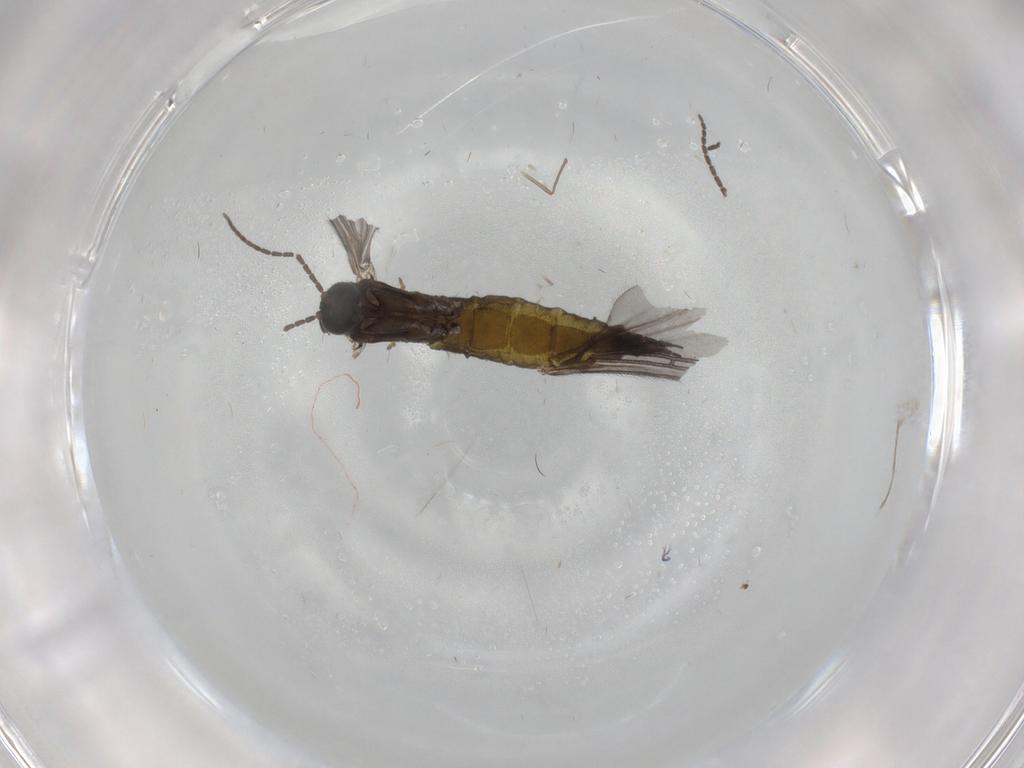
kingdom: Animalia
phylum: Arthropoda
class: Insecta
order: Diptera
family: Sciaridae
